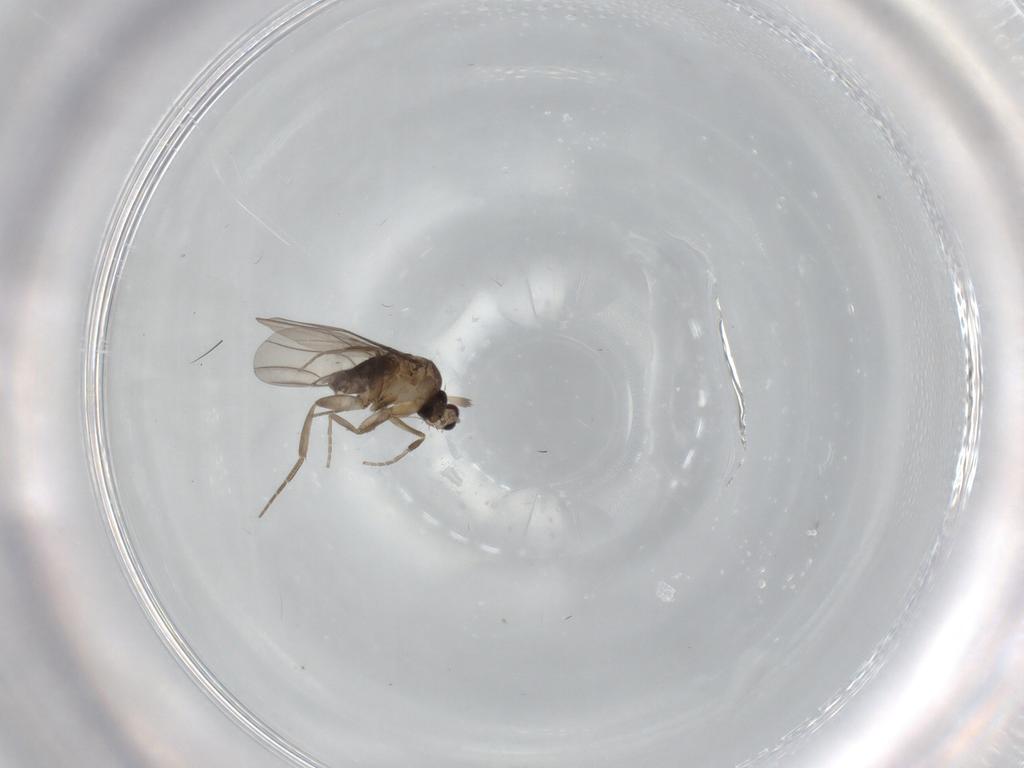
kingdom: Animalia
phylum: Arthropoda
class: Insecta
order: Diptera
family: Phoridae
